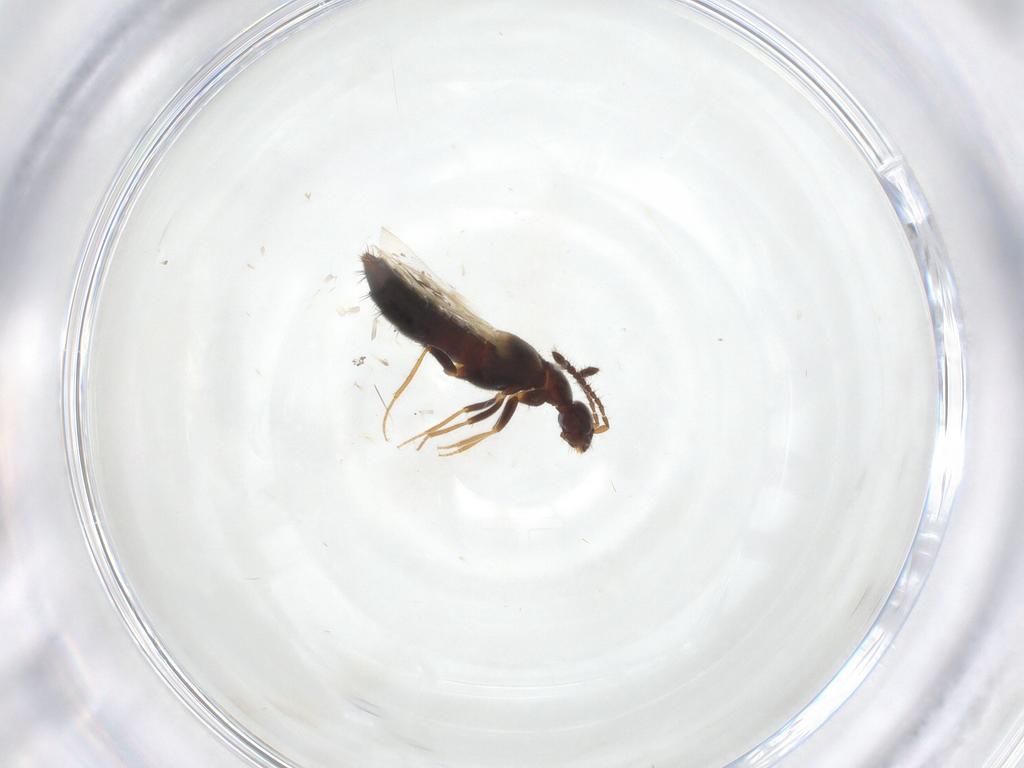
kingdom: Animalia
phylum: Arthropoda
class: Insecta
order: Coleoptera
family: Staphylinidae
